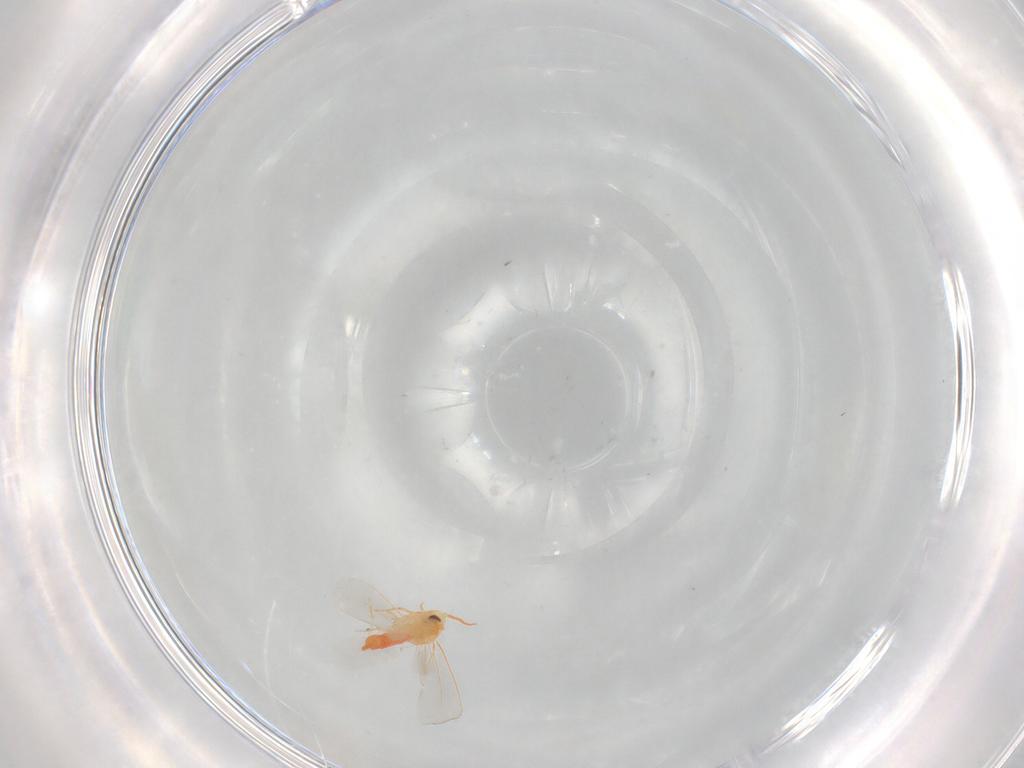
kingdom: Animalia
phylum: Arthropoda
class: Insecta
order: Hemiptera
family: Aleyrodidae
